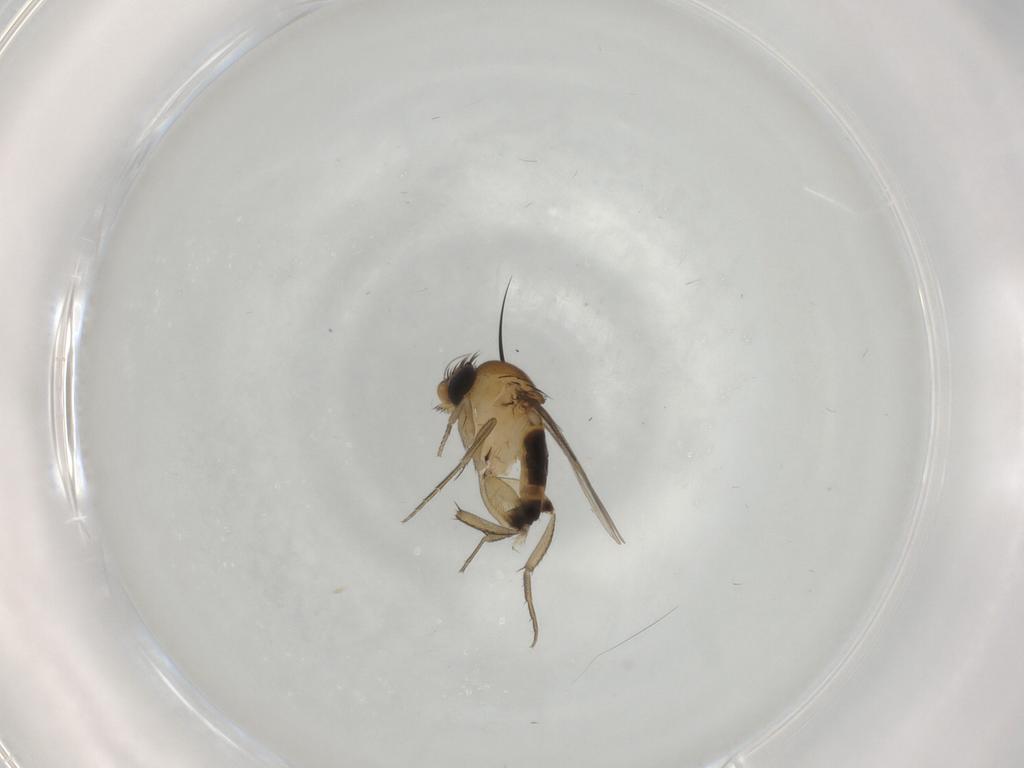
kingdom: Animalia
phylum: Arthropoda
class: Insecta
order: Diptera
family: Phoridae
